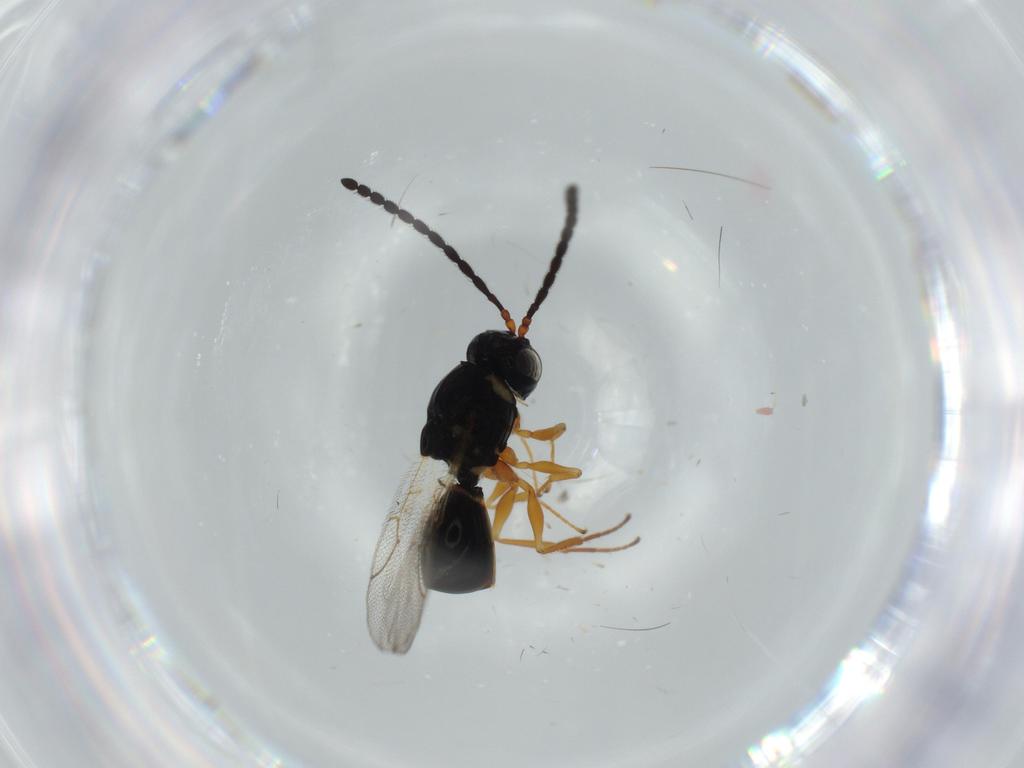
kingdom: Animalia
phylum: Arthropoda
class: Insecta
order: Hymenoptera
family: Figitidae
